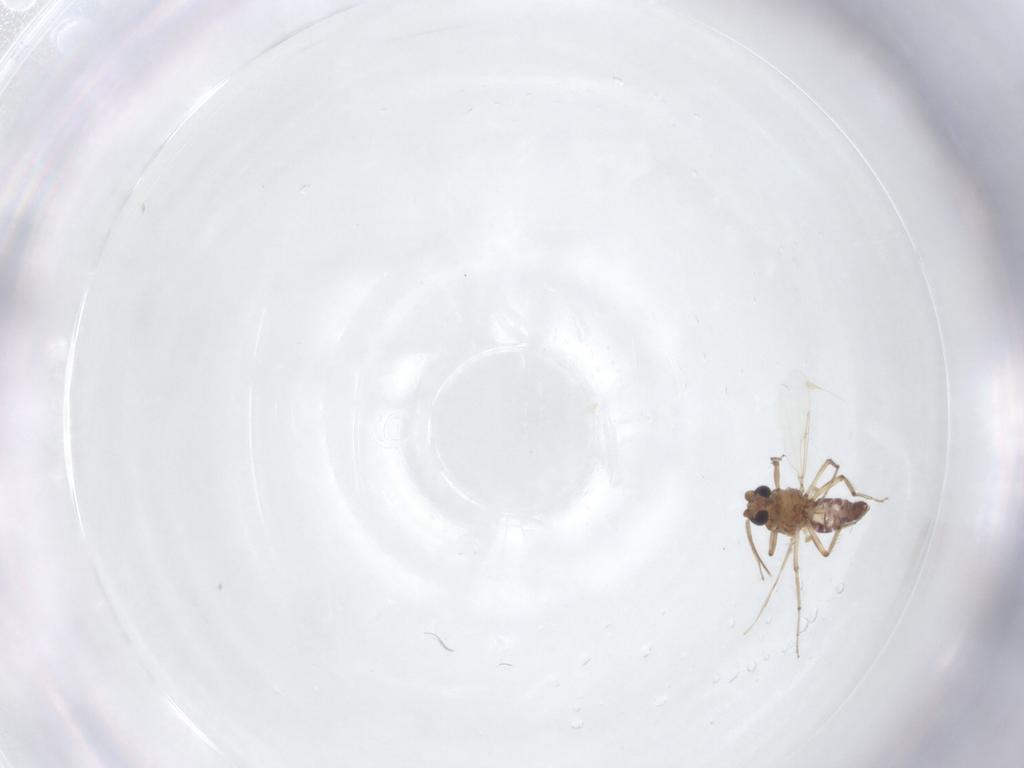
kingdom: Animalia
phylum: Arthropoda
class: Insecta
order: Diptera
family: Ceratopogonidae
